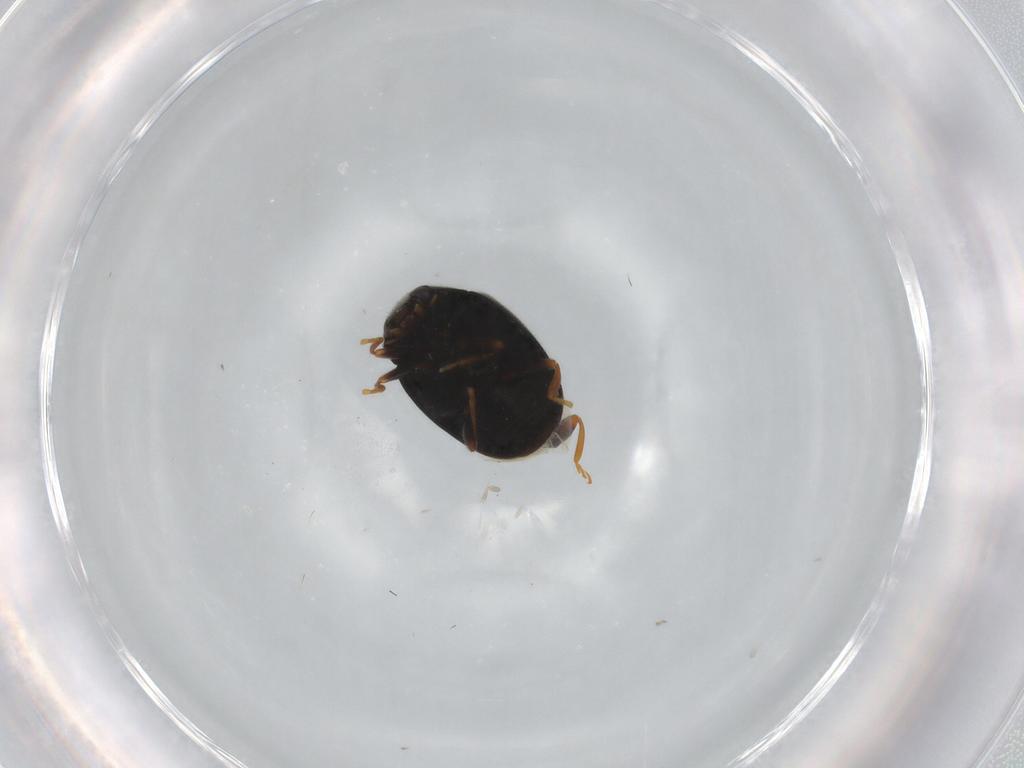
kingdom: Animalia
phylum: Arthropoda
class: Insecta
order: Coleoptera
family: Coccinellidae
